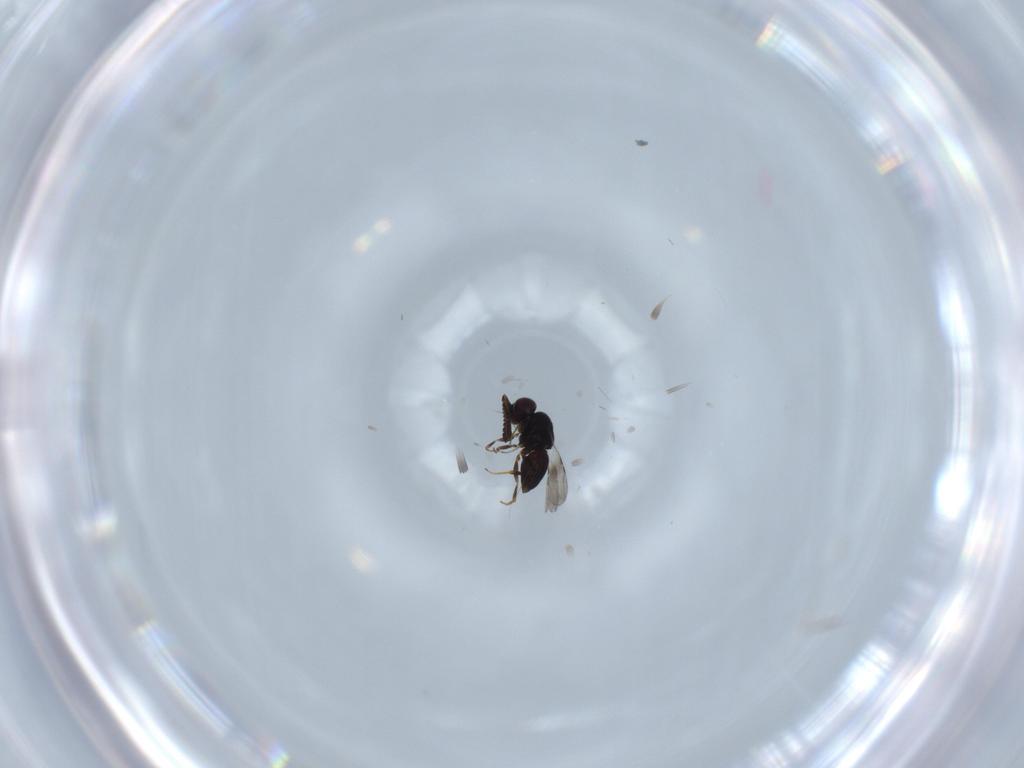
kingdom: Animalia
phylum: Arthropoda
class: Insecta
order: Hymenoptera
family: Scelionidae
